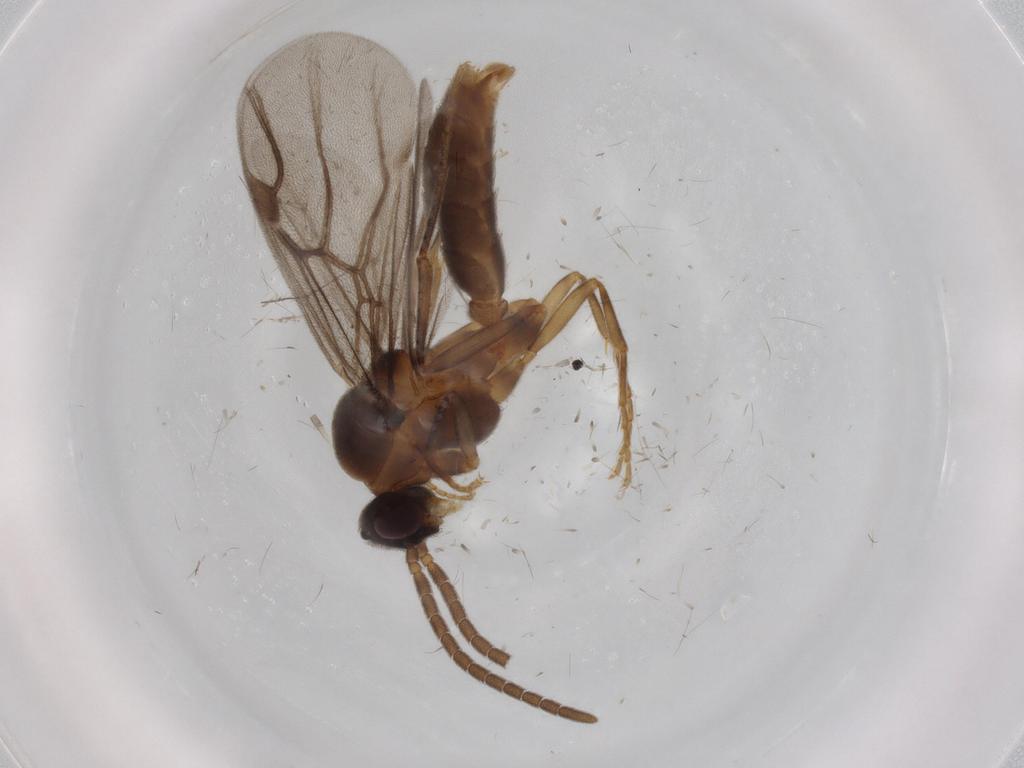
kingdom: Animalia
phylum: Arthropoda
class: Insecta
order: Hymenoptera
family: Formicidae
